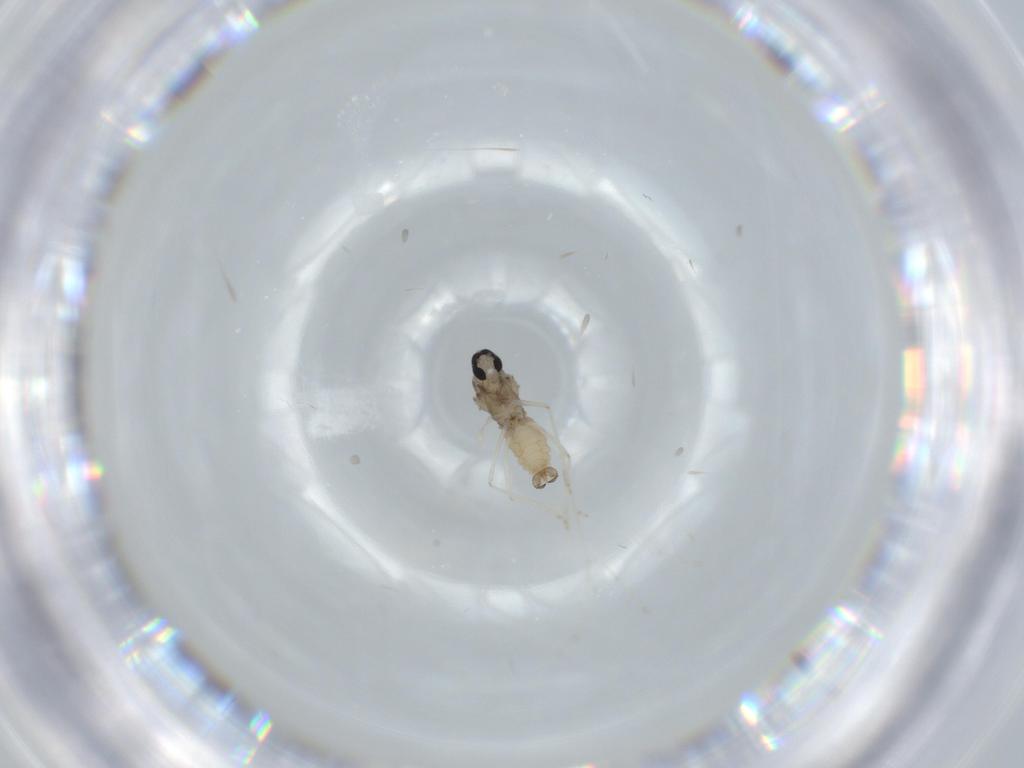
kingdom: Animalia
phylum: Arthropoda
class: Insecta
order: Diptera
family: Cecidomyiidae
